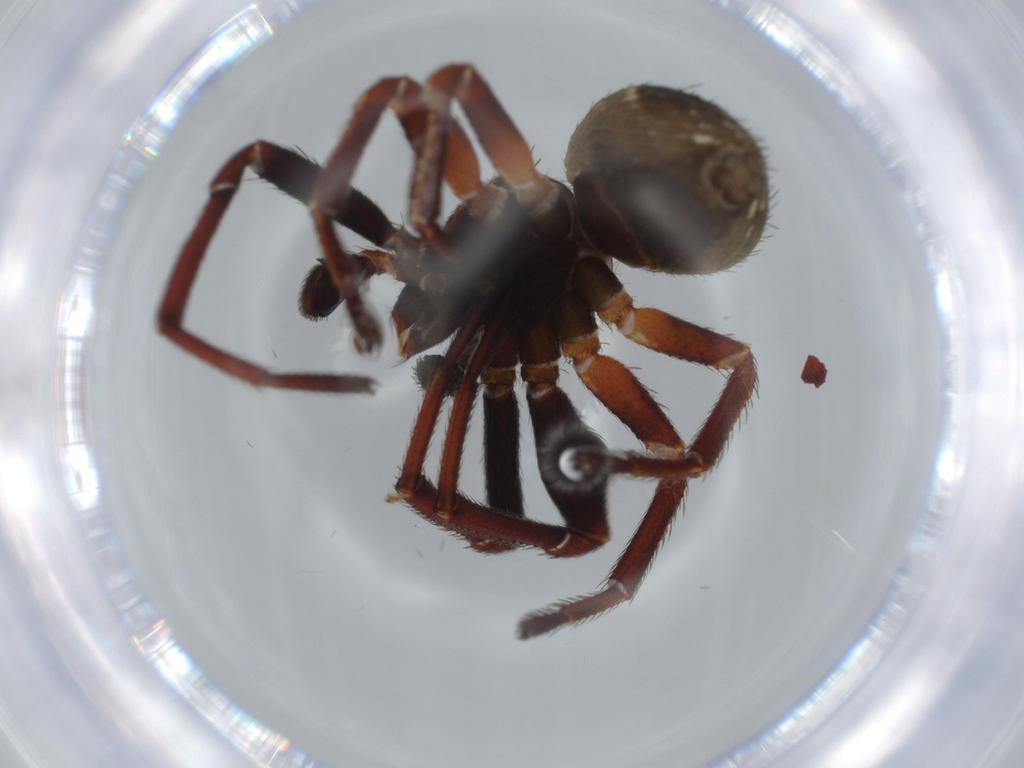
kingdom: Animalia
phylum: Arthropoda
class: Arachnida
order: Araneae
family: Thomisidae
